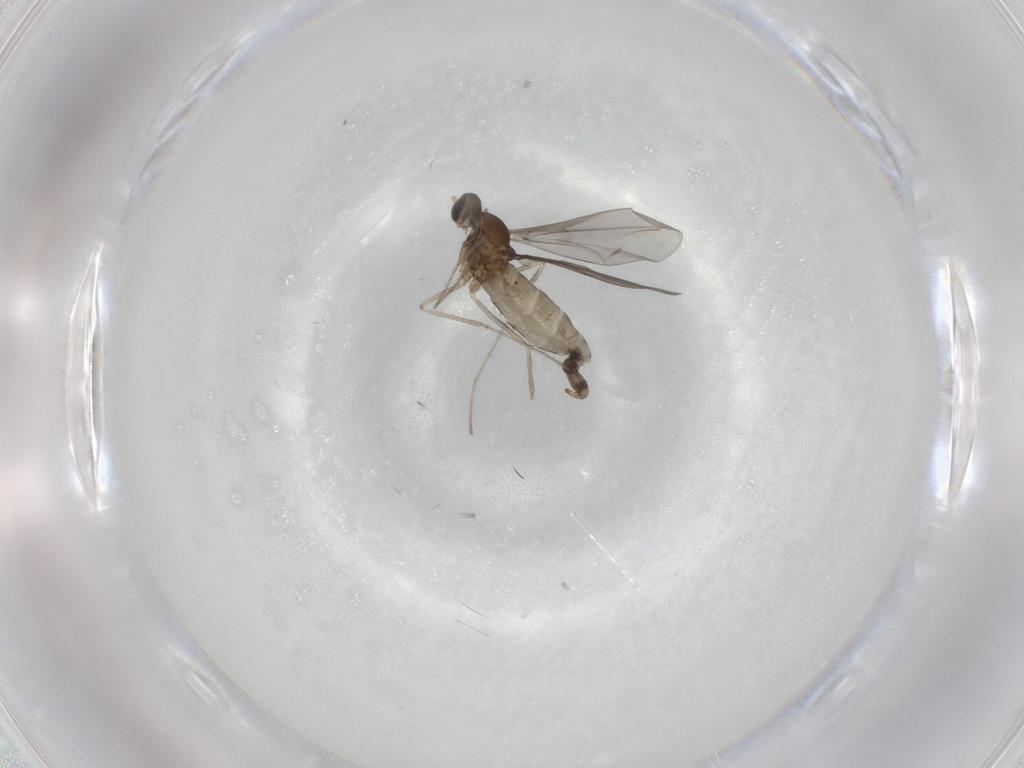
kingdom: Animalia
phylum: Arthropoda
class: Insecta
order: Diptera
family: Cecidomyiidae
